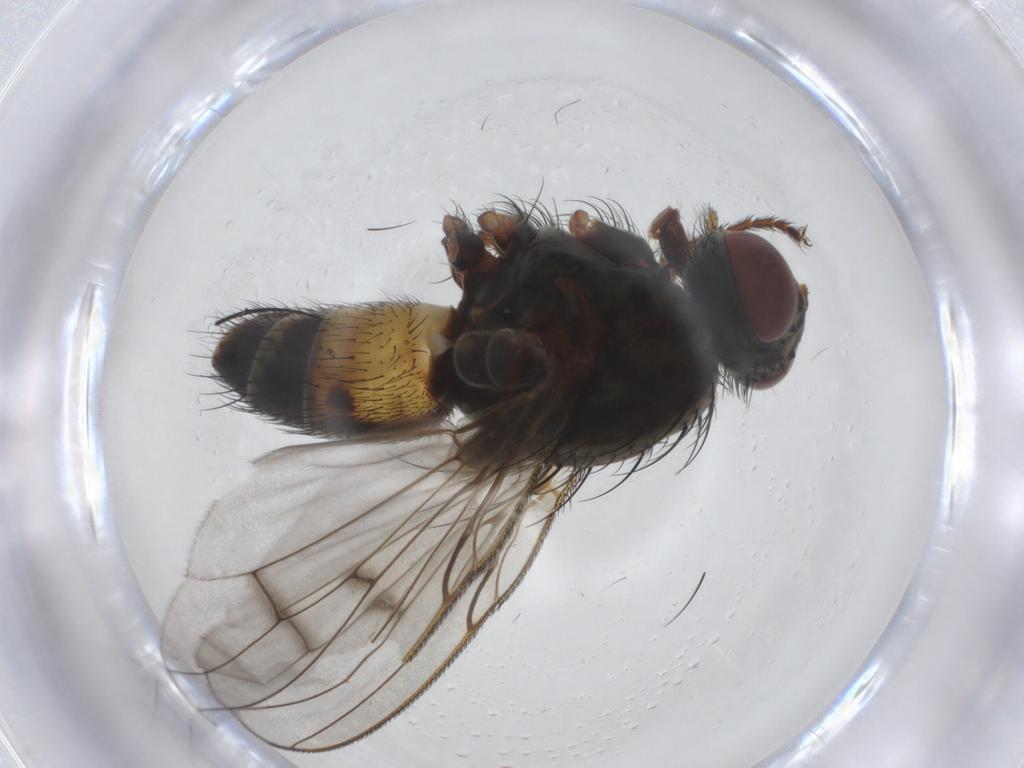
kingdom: Animalia
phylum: Arthropoda
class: Insecta
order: Diptera
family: Muscidae
